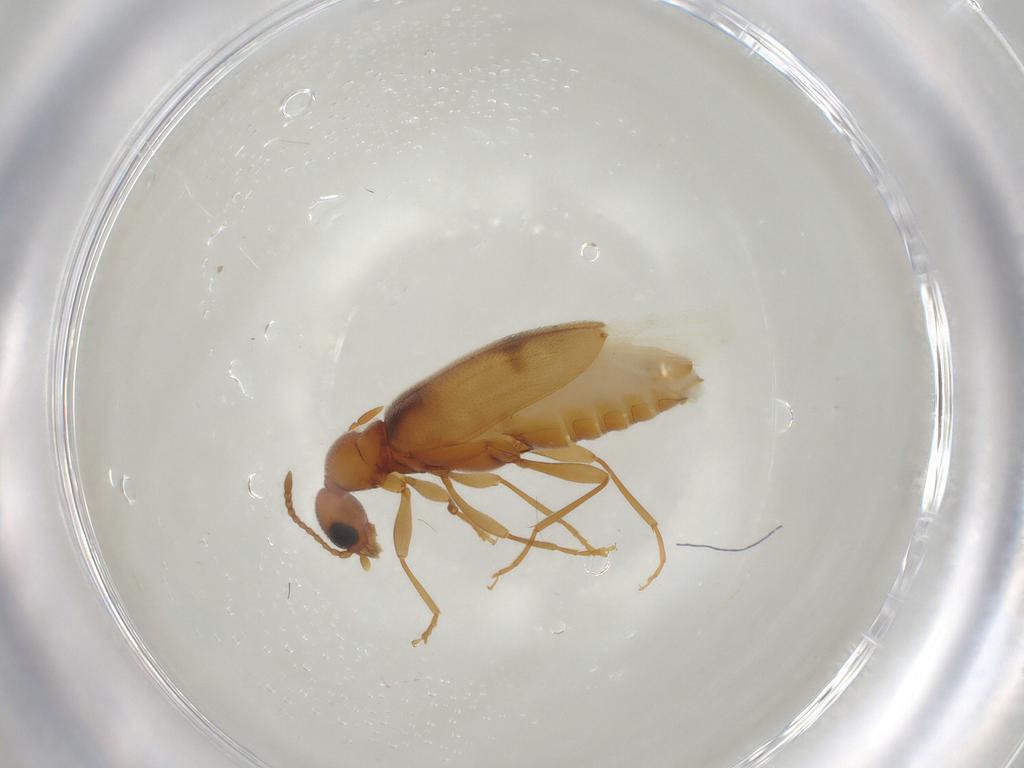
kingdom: Animalia
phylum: Arthropoda
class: Insecta
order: Coleoptera
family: Anthicidae
